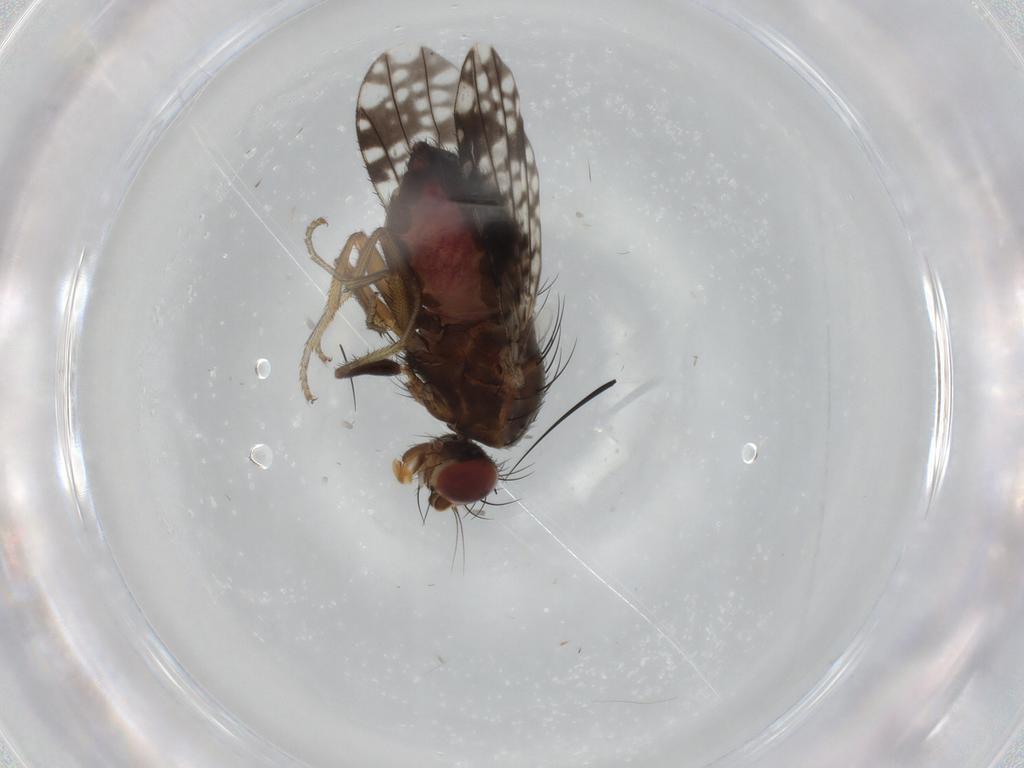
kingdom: Animalia
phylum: Arthropoda
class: Insecta
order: Diptera
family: Tephritidae
